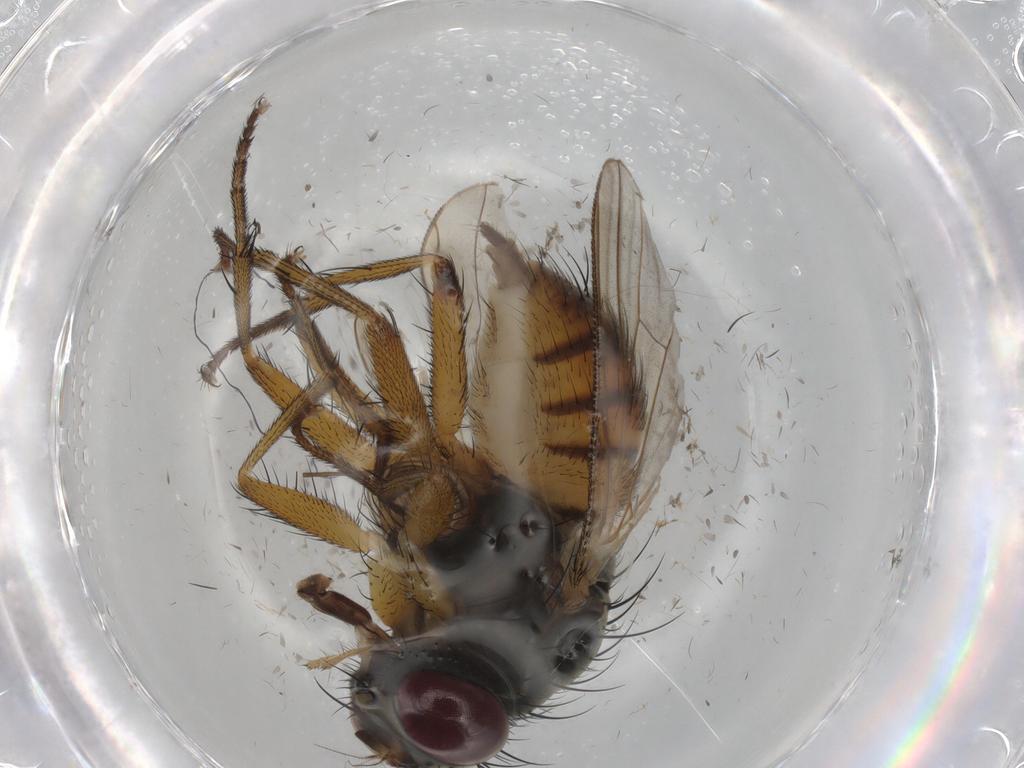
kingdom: Animalia
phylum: Arthropoda
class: Insecta
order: Diptera
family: Muscidae
